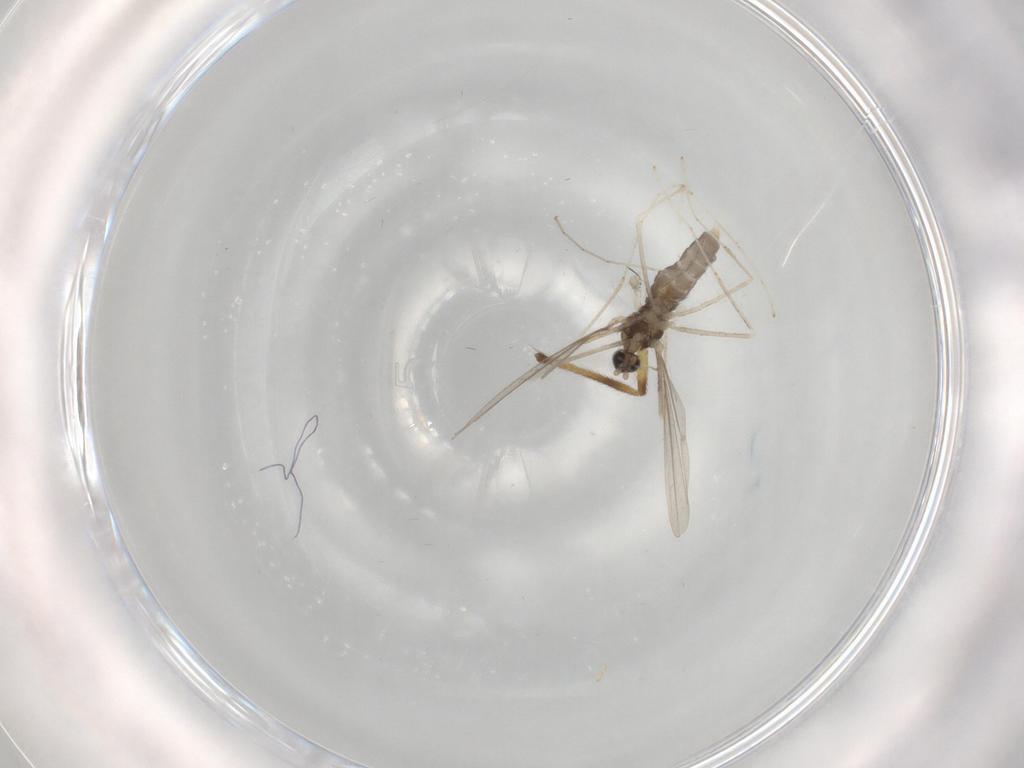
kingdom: Animalia
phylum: Arthropoda
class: Insecta
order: Diptera
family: Cecidomyiidae
